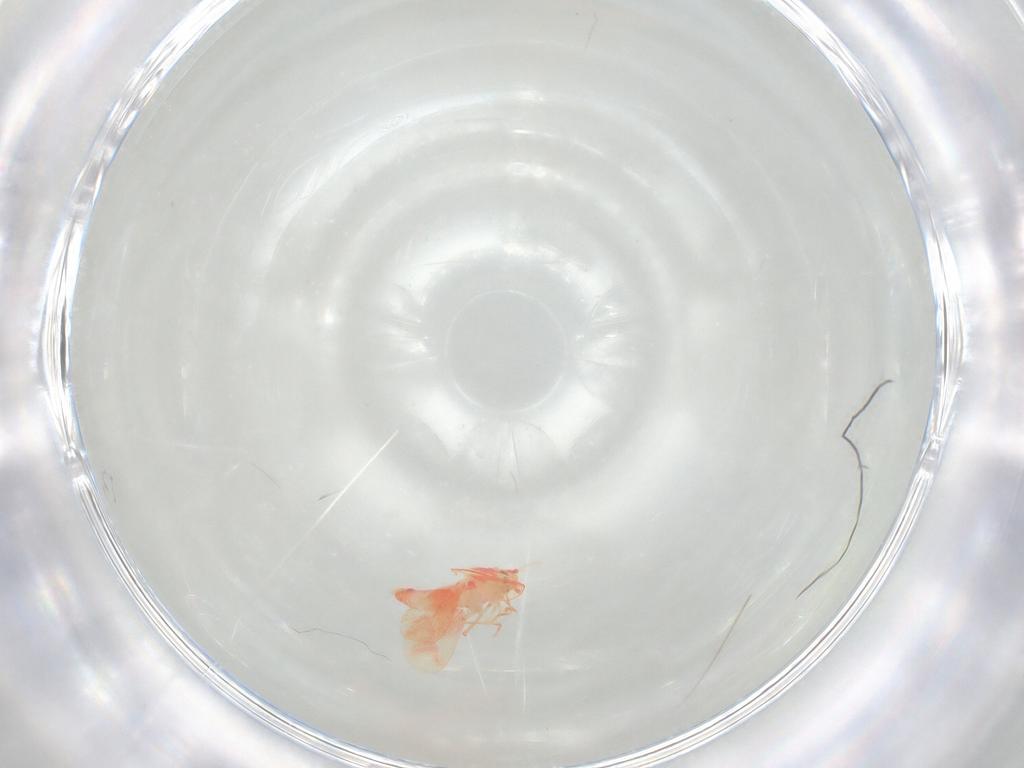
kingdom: Animalia
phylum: Arthropoda
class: Insecta
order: Hemiptera
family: Aleyrodidae
